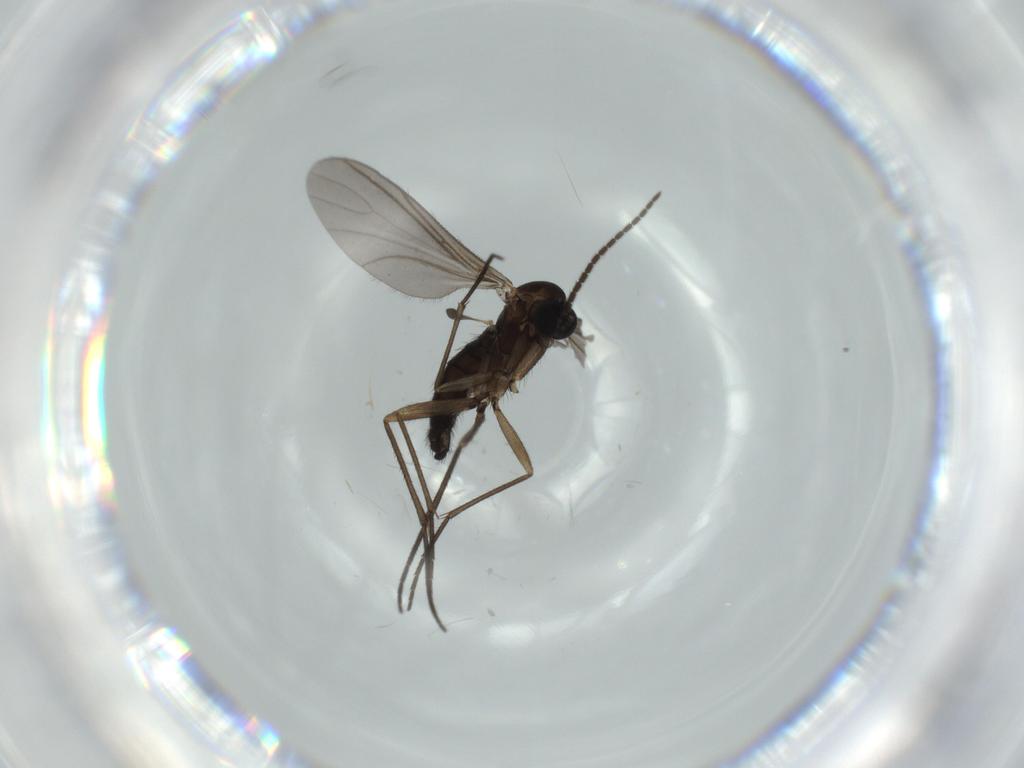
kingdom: Animalia
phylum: Arthropoda
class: Insecta
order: Diptera
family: Sciaridae
